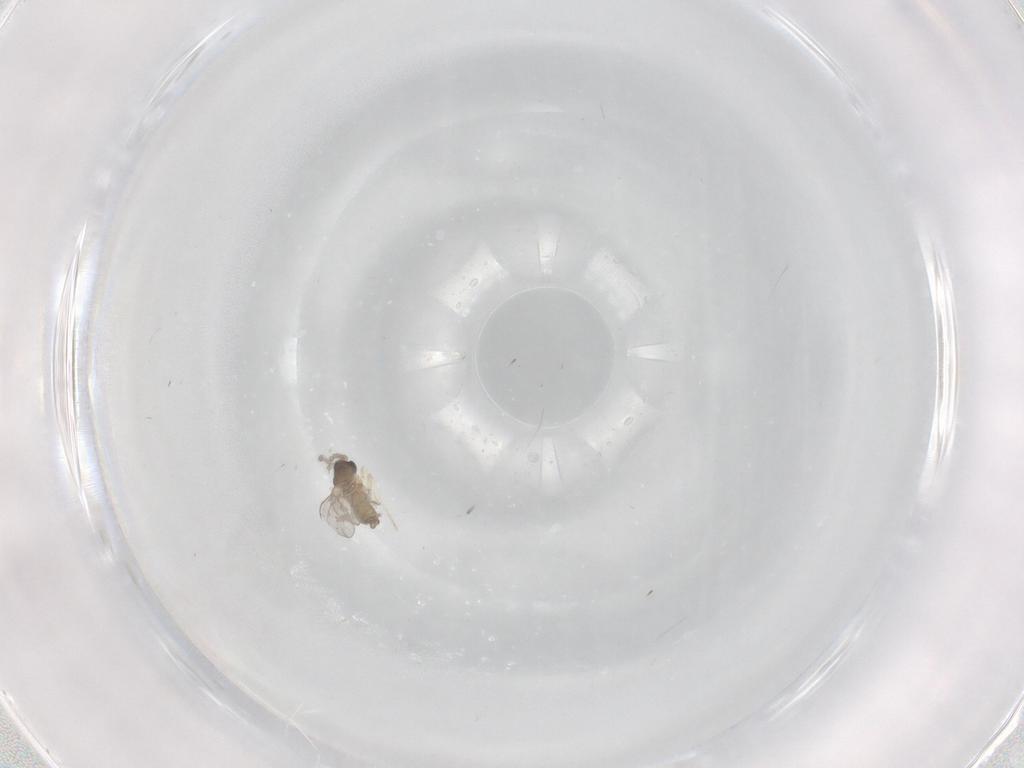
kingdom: Animalia
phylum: Arthropoda
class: Insecta
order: Diptera
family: Cecidomyiidae
